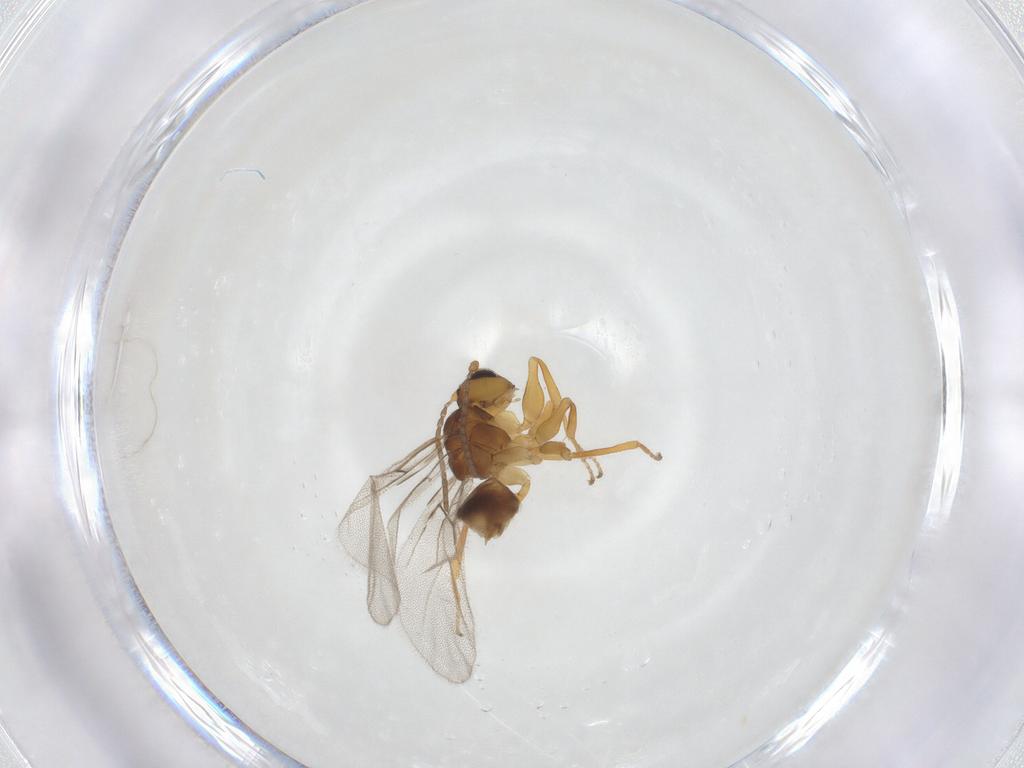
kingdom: Animalia
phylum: Arthropoda
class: Insecta
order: Hymenoptera
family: Cynipidae
